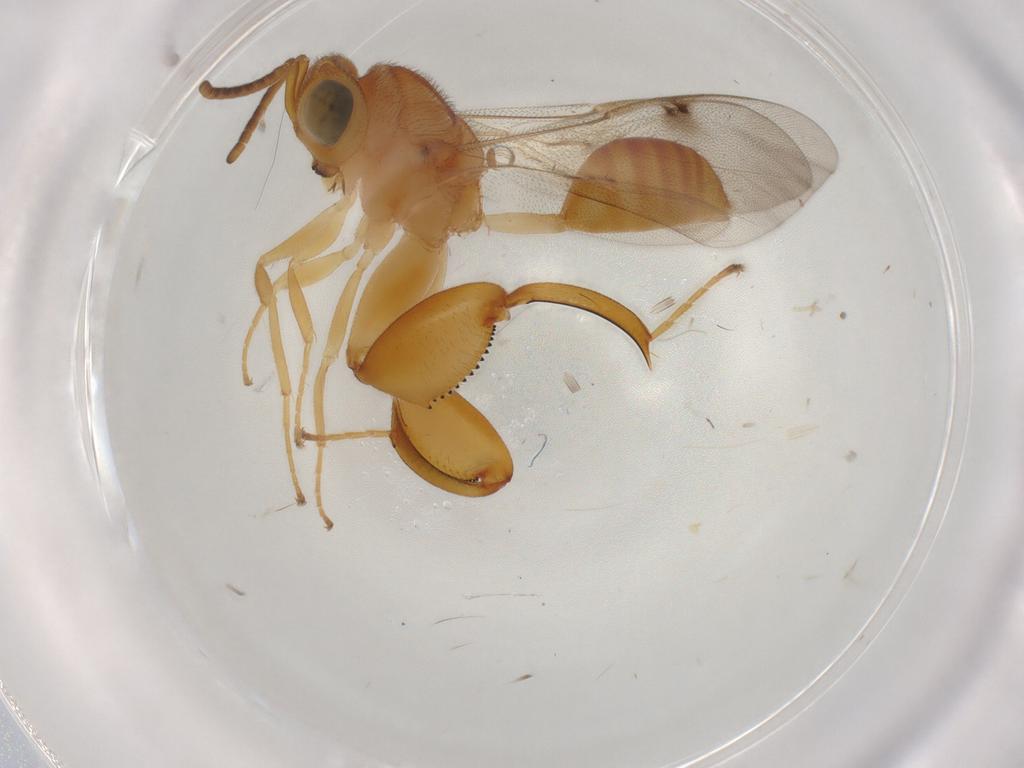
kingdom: Animalia
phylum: Arthropoda
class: Insecta
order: Hymenoptera
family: Chalcididae
